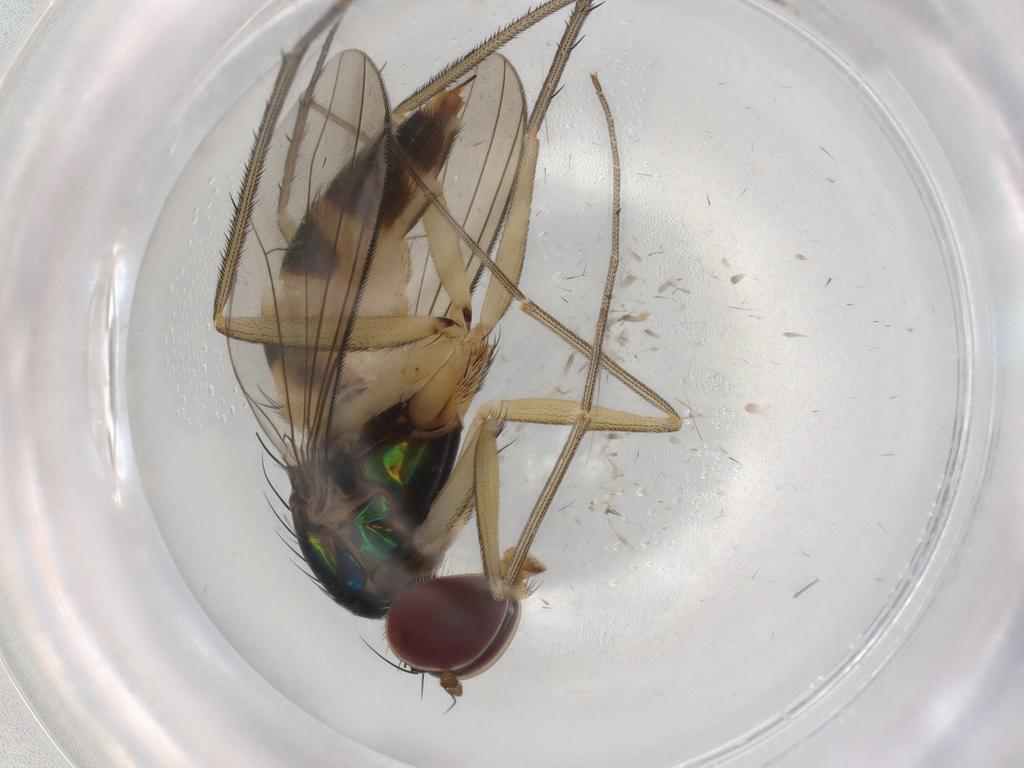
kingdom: Animalia
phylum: Arthropoda
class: Insecta
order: Diptera
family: Dolichopodidae
